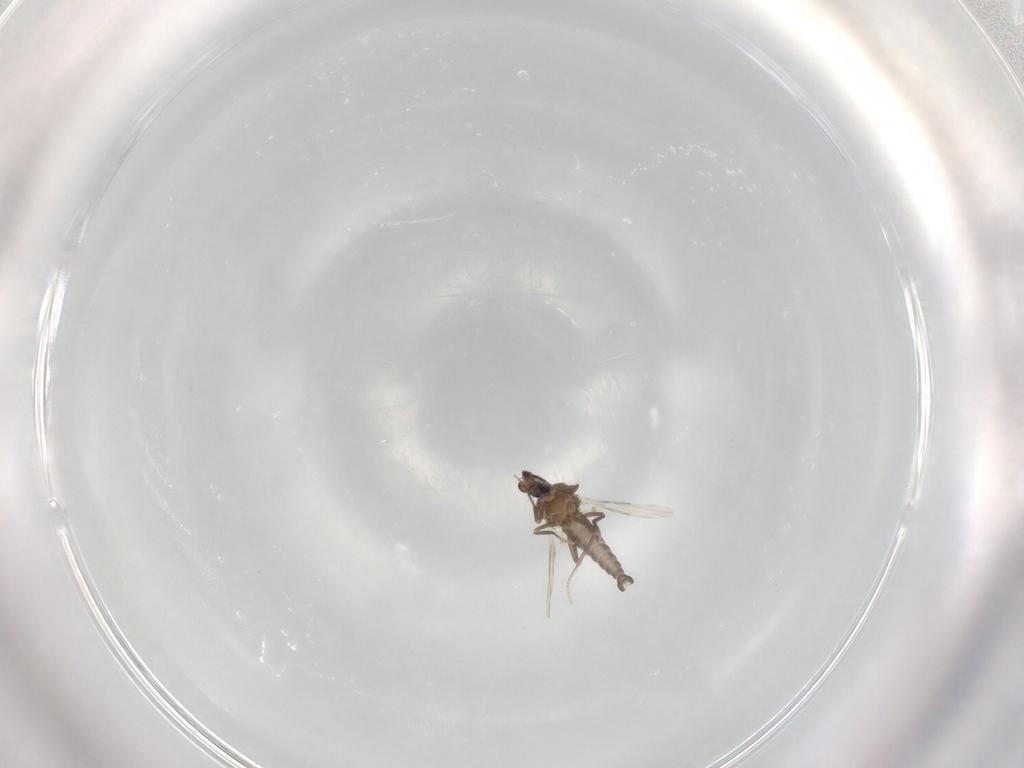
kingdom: Animalia
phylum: Arthropoda
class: Insecta
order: Diptera
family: Ceratopogonidae
